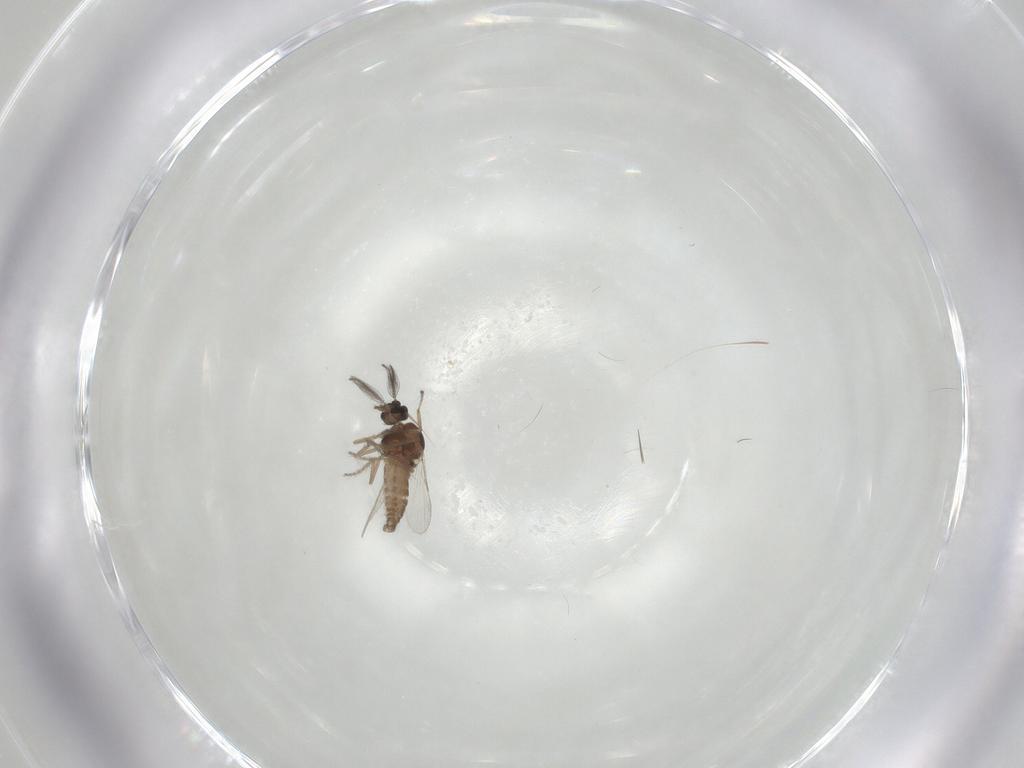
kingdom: Animalia
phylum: Arthropoda
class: Insecta
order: Diptera
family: Ceratopogonidae
